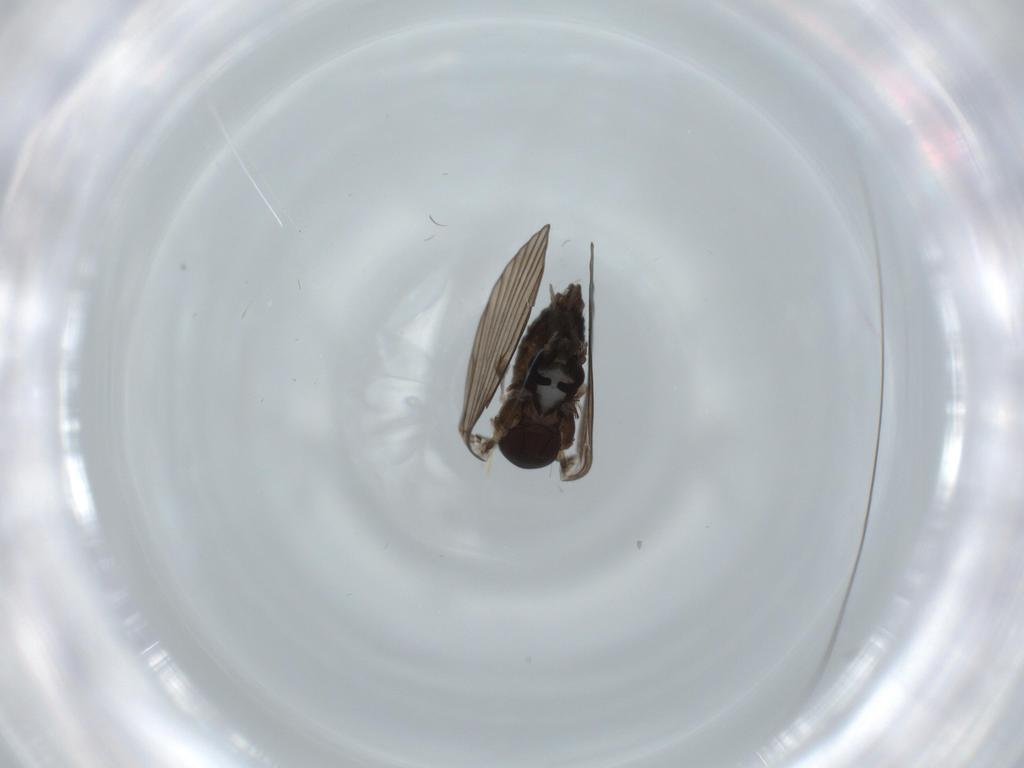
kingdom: Animalia
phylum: Arthropoda
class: Insecta
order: Diptera
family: Psychodidae
